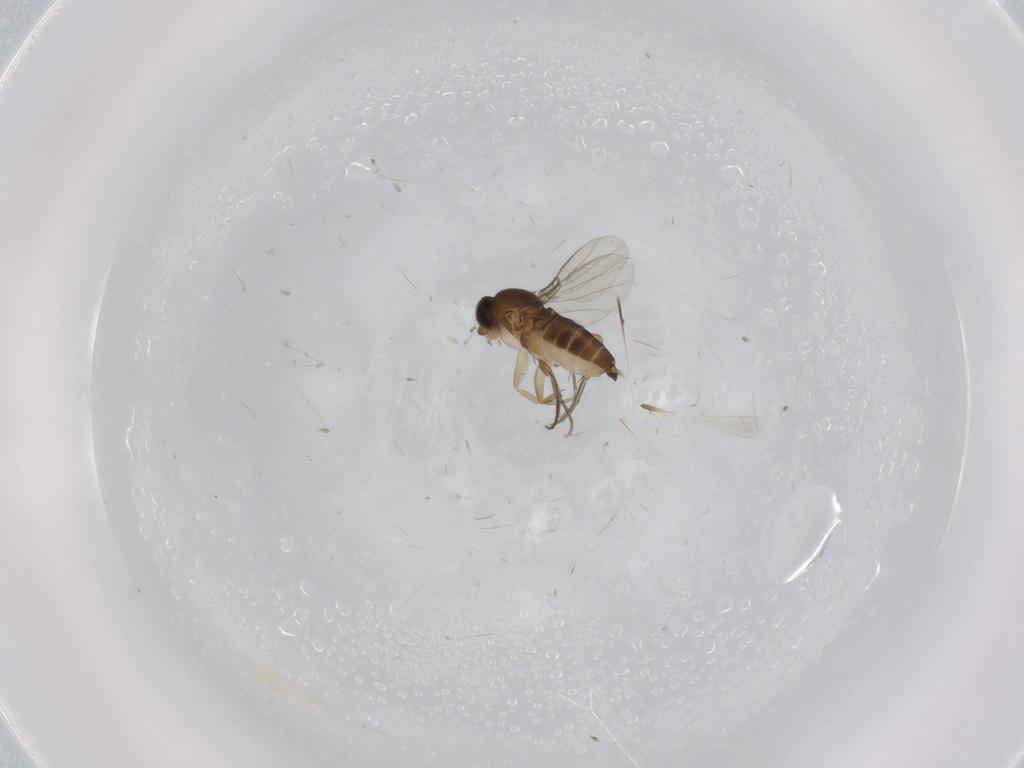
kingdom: Animalia
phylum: Arthropoda
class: Insecta
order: Diptera
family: Phoridae
